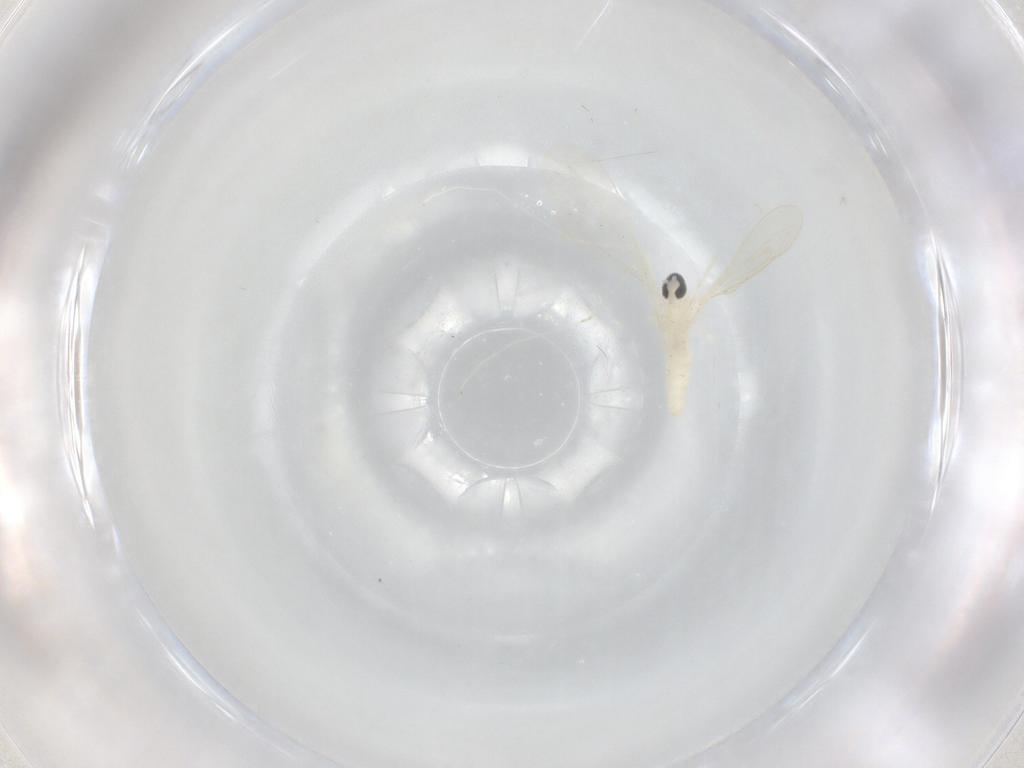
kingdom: Animalia
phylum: Arthropoda
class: Insecta
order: Diptera
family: Cecidomyiidae
